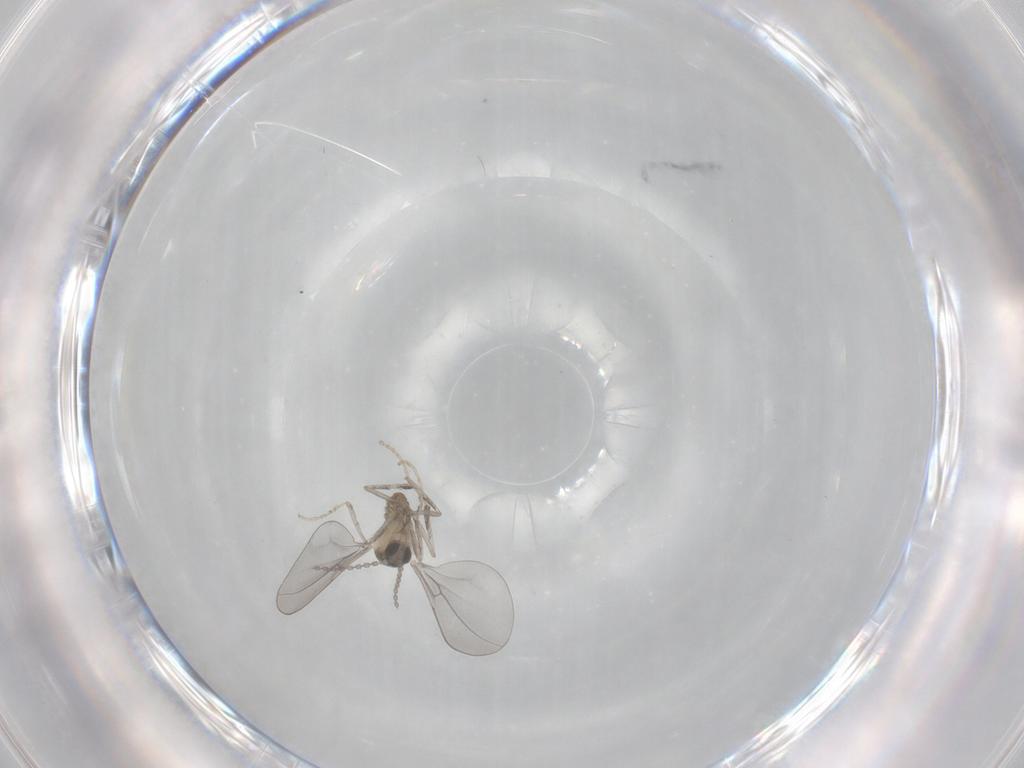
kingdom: Animalia
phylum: Arthropoda
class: Insecta
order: Diptera
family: Cecidomyiidae
